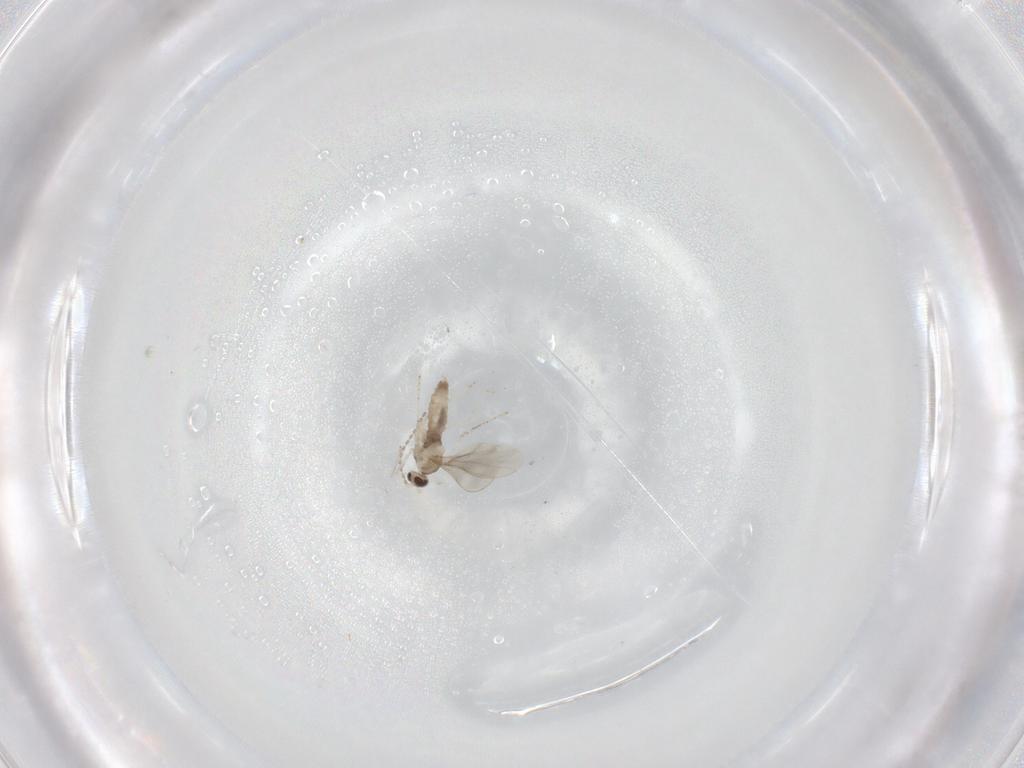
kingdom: Animalia
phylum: Arthropoda
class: Insecta
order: Diptera
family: Cecidomyiidae
